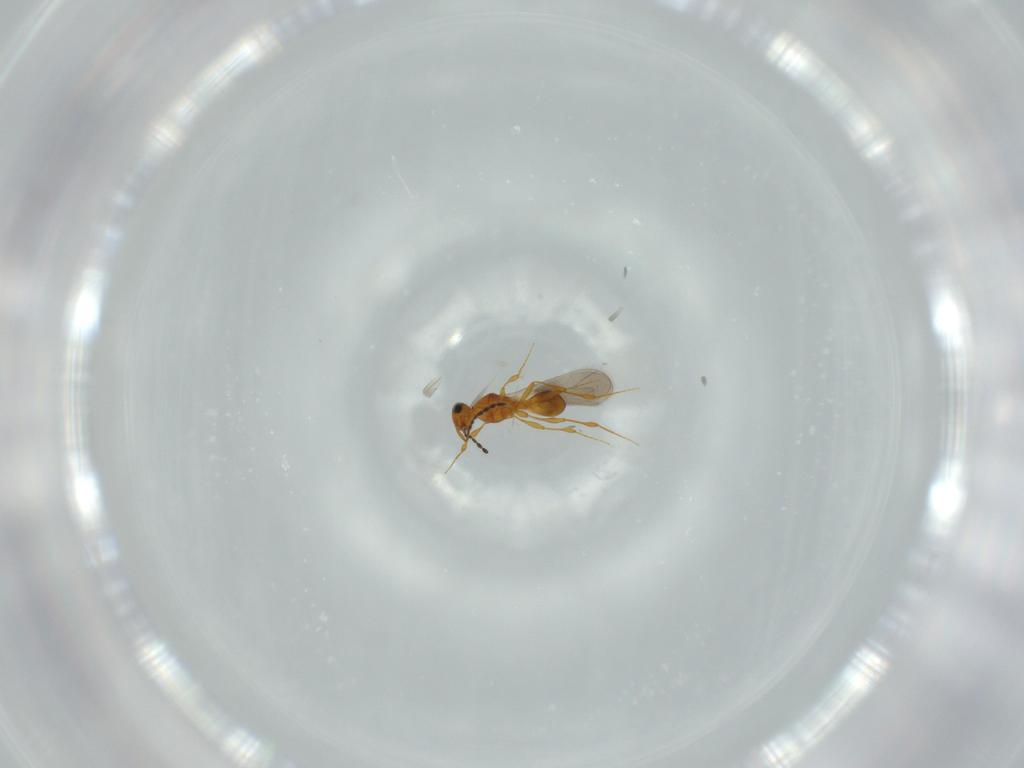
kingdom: Animalia
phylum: Arthropoda
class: Insecta
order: Hymenoptera
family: Platygastridae
